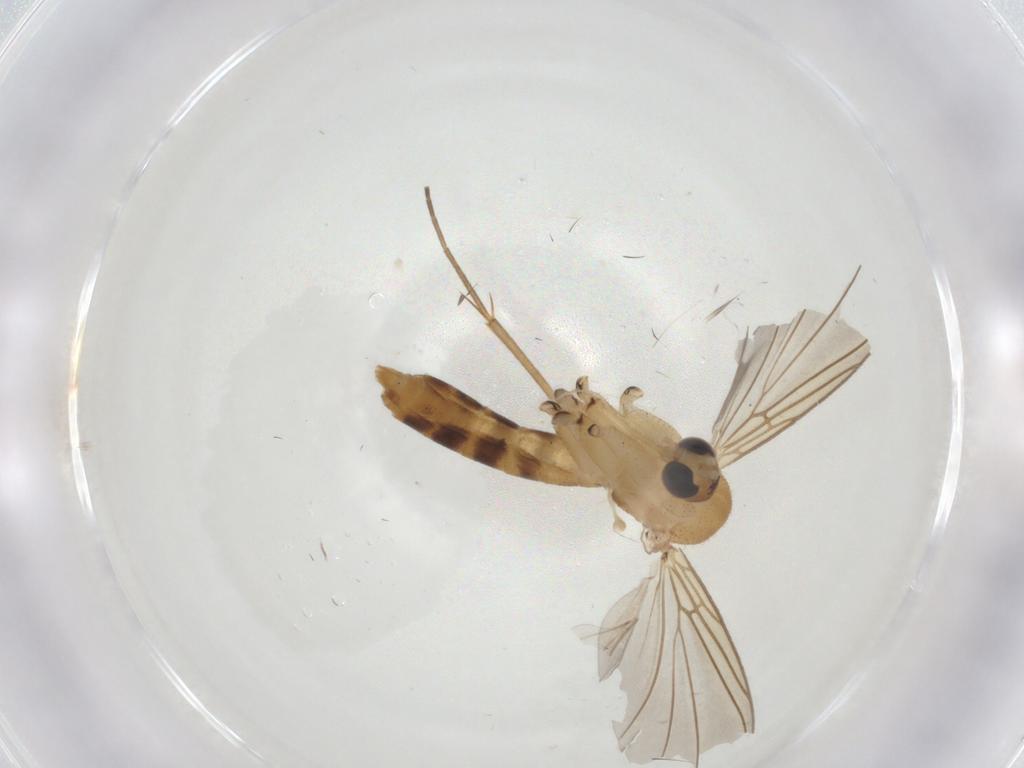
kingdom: Animalia
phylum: Arthropoda
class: Insecta
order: Diptera
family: Mycetophilidae
